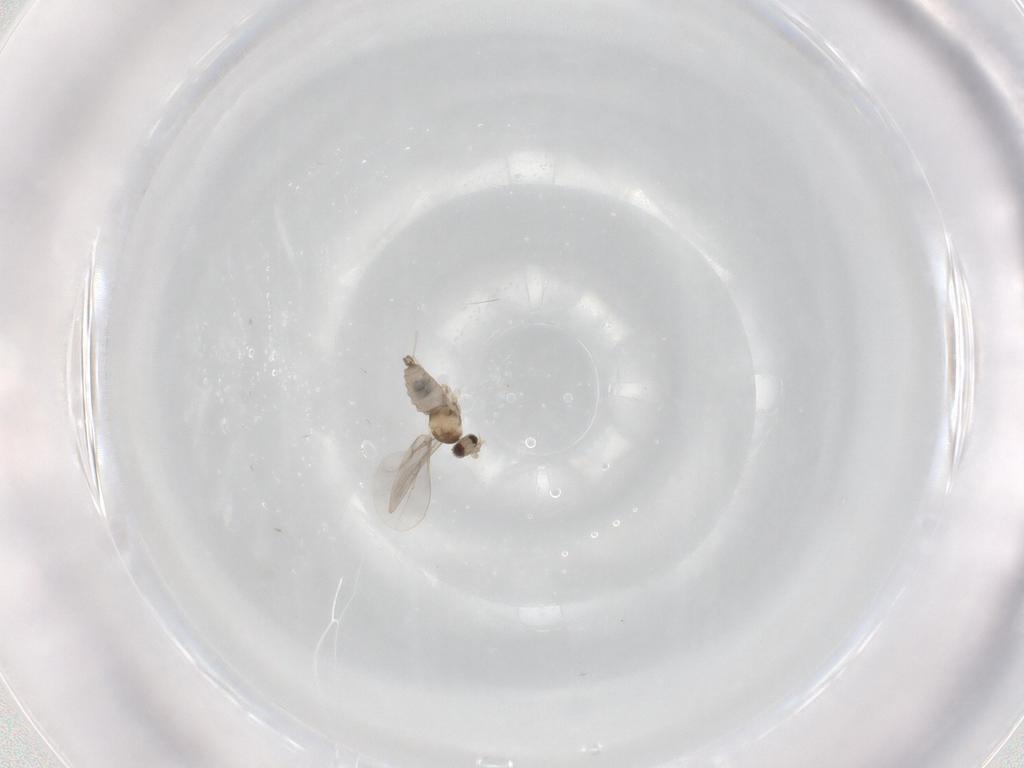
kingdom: Animalia
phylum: Arthropoda
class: Insecta
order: Diptera
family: Cecidomyiidae
